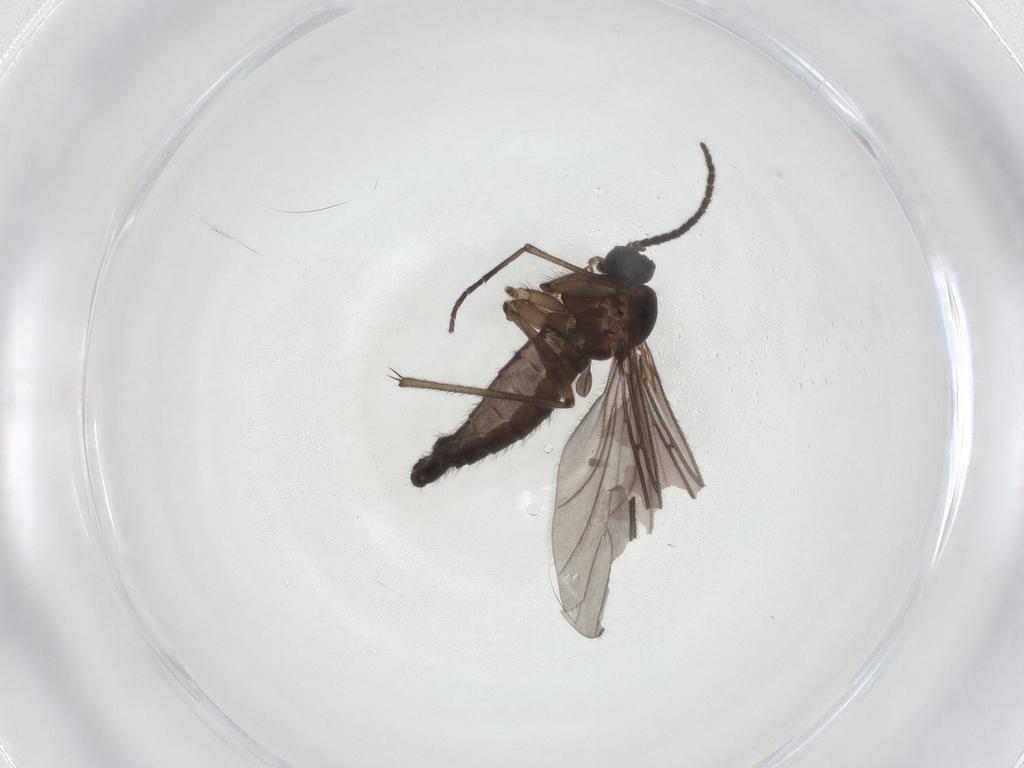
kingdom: Animalia
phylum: Arthropoda
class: Insecta
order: Diptera
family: Sciaridae
